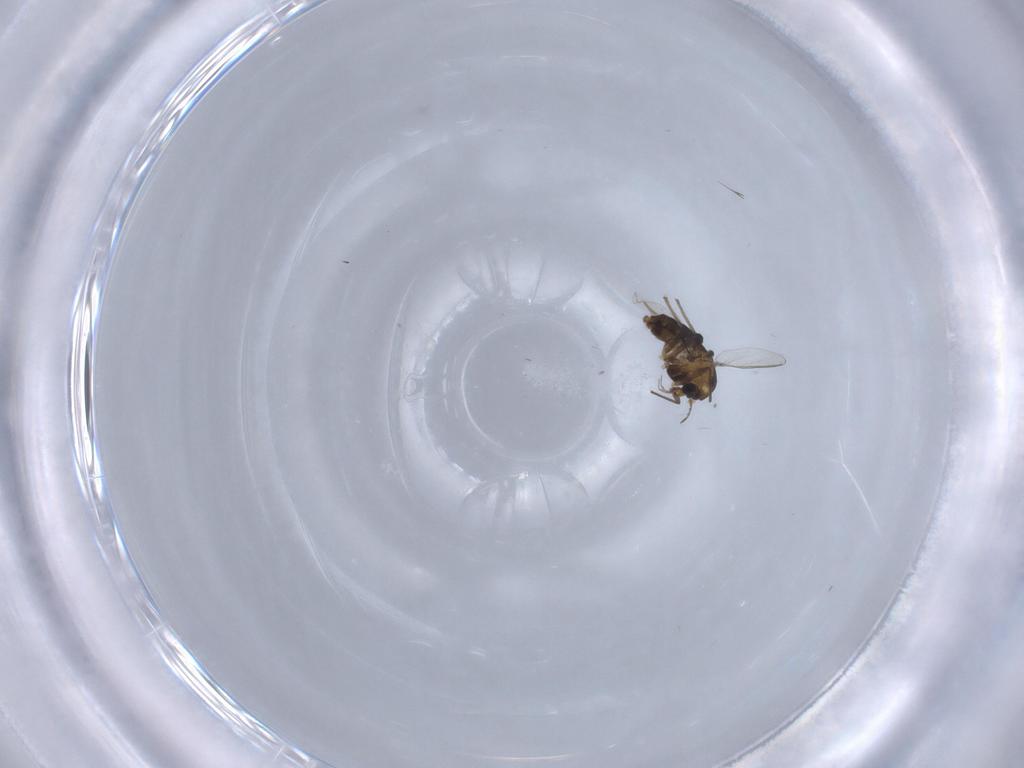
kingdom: Animalia
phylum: Arthropoda
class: Insecta
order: Diptera
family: Chironomidae
